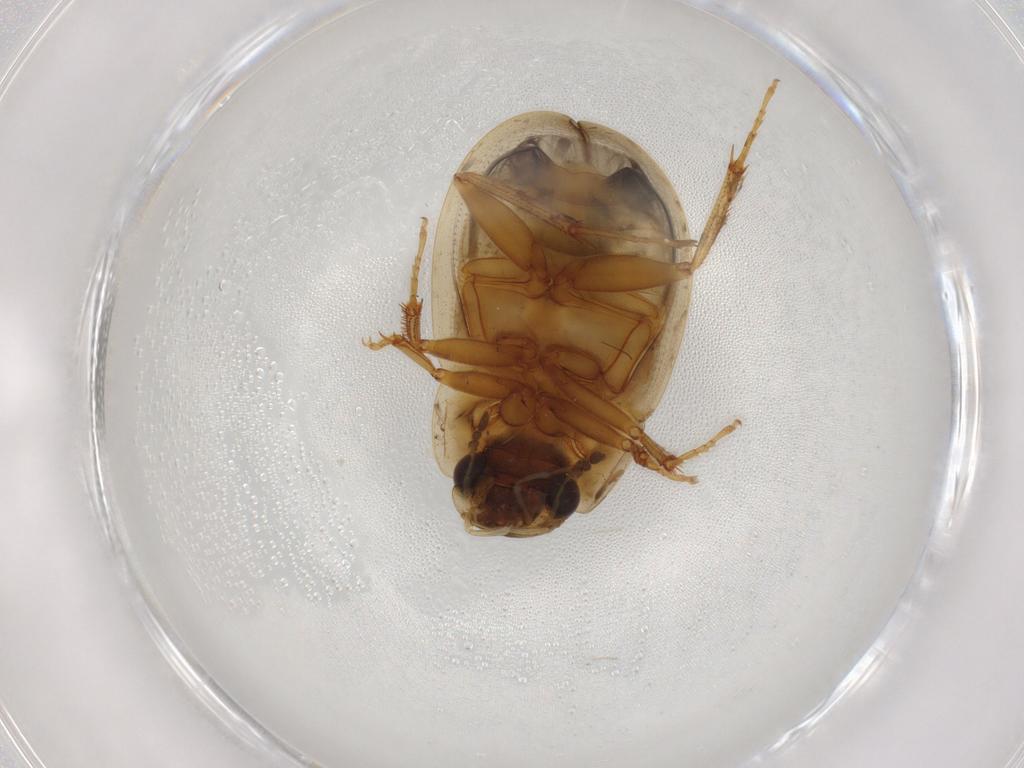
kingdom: Animalia
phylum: Arthropoda
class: Insecta
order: Coleoptera
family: Hydrophilidae
